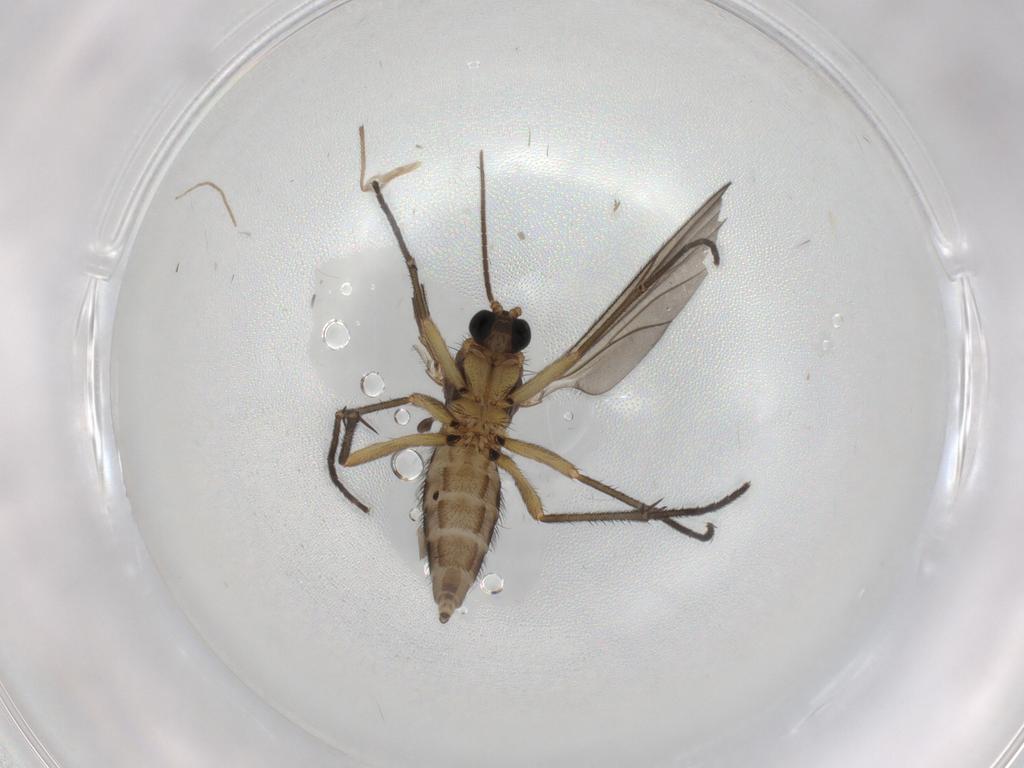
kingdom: Animalia
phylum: Arthropoda
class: Insecta
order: Diptera
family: Sciaridae
